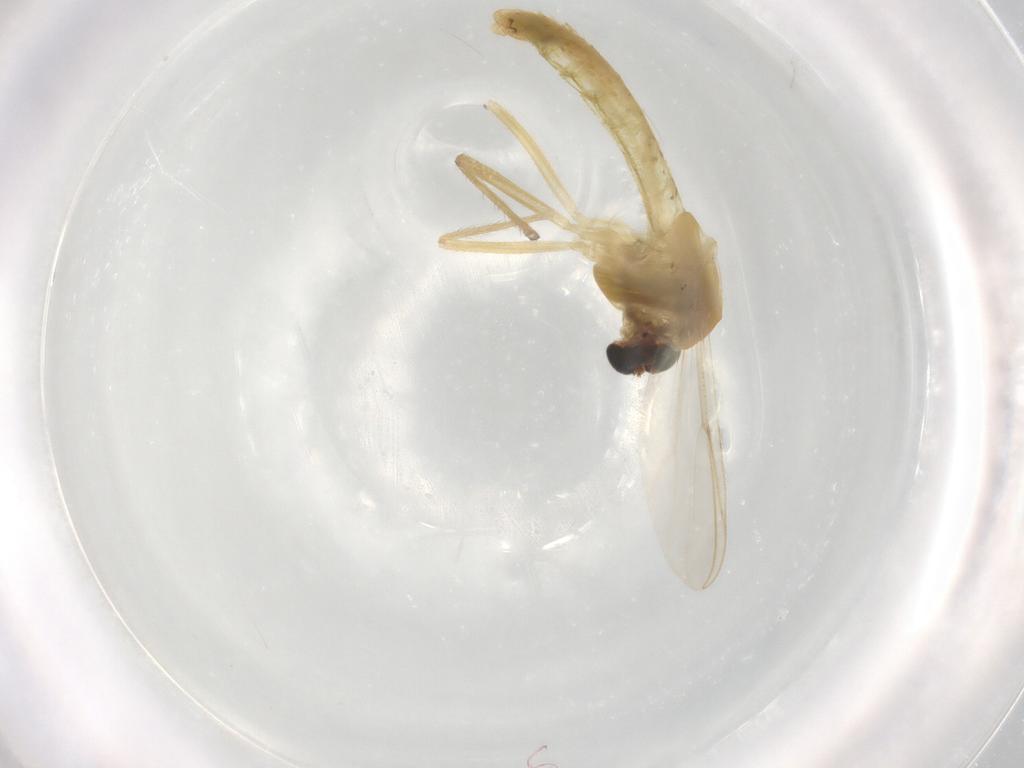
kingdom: Animalia
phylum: Arthropoda
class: Insecta
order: Diptera
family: Chironomidae
